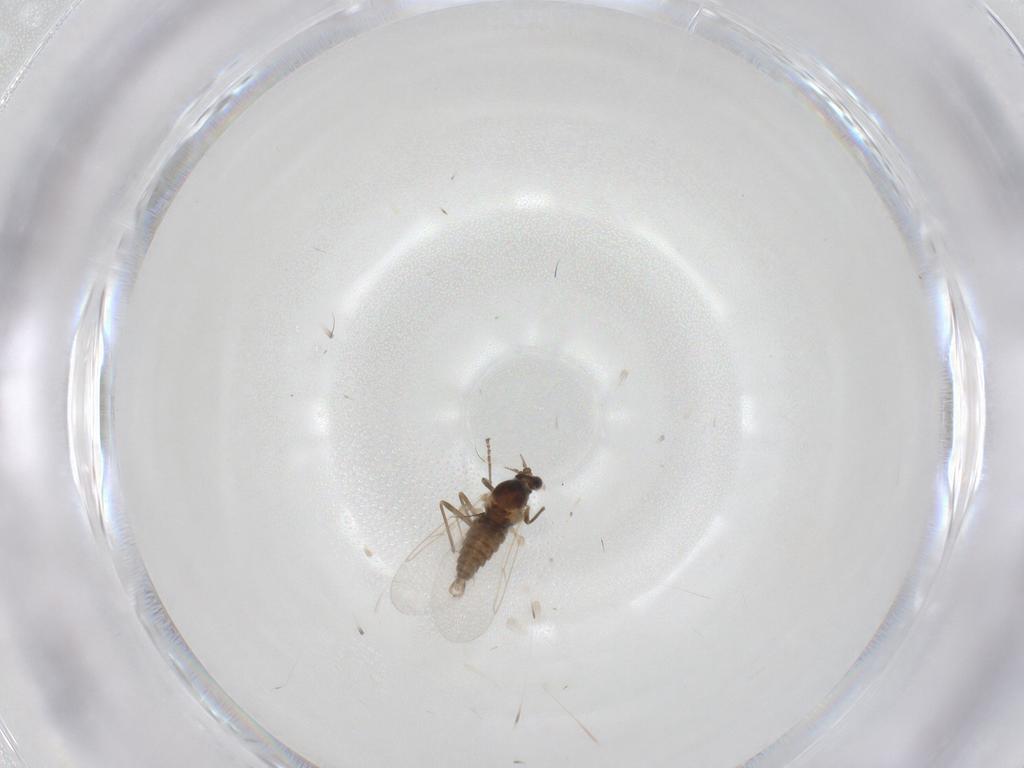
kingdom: Animalia
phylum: Arthropoda
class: Insecta
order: Diptera
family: Cecidomyiidae
